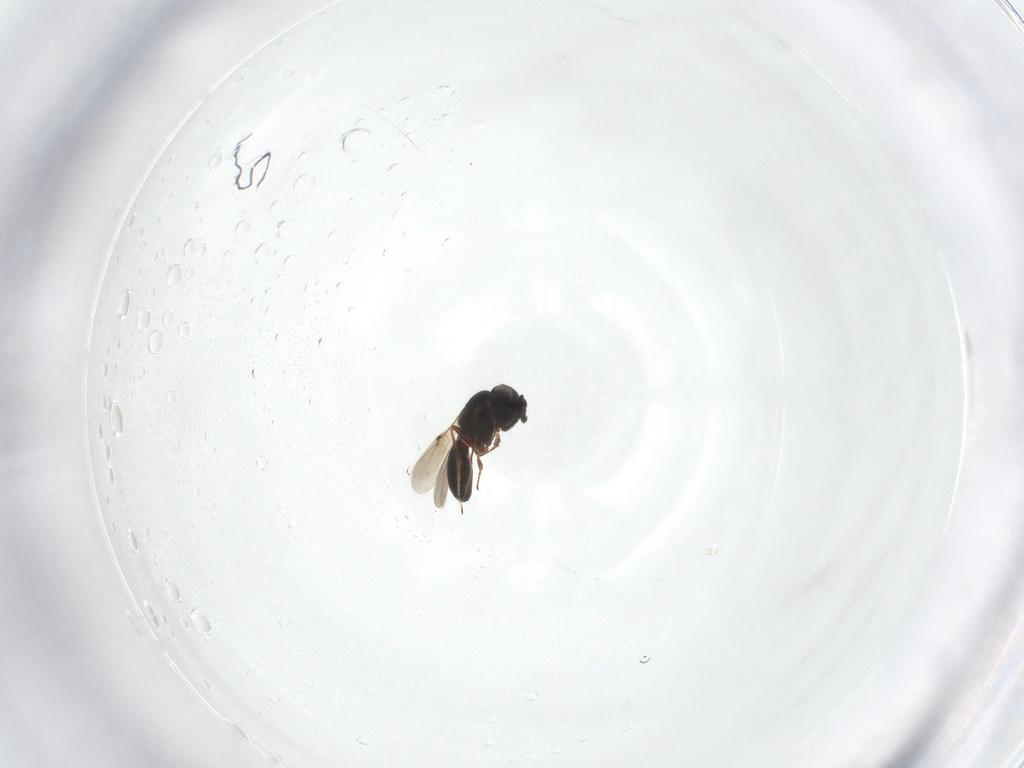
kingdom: Animalia
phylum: Arthropoda
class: Insecta
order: Hymenoptera
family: Scelionidae
